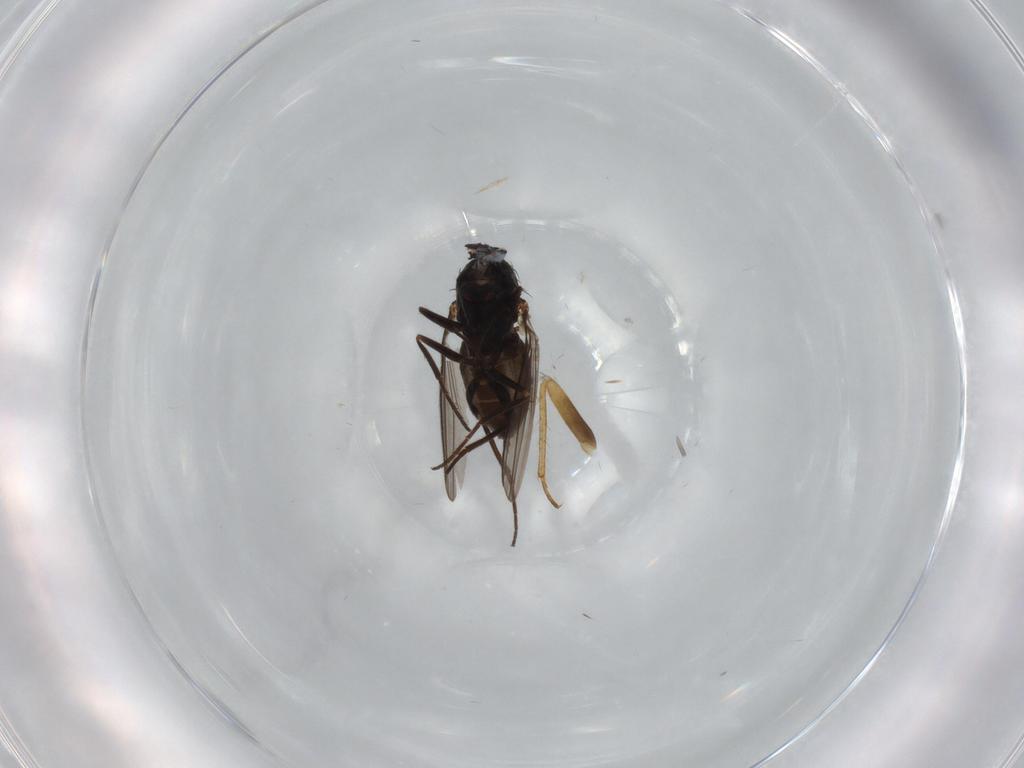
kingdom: Animalia
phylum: Arthropoda
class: Insecta
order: Diptera
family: Dolichopodidae
